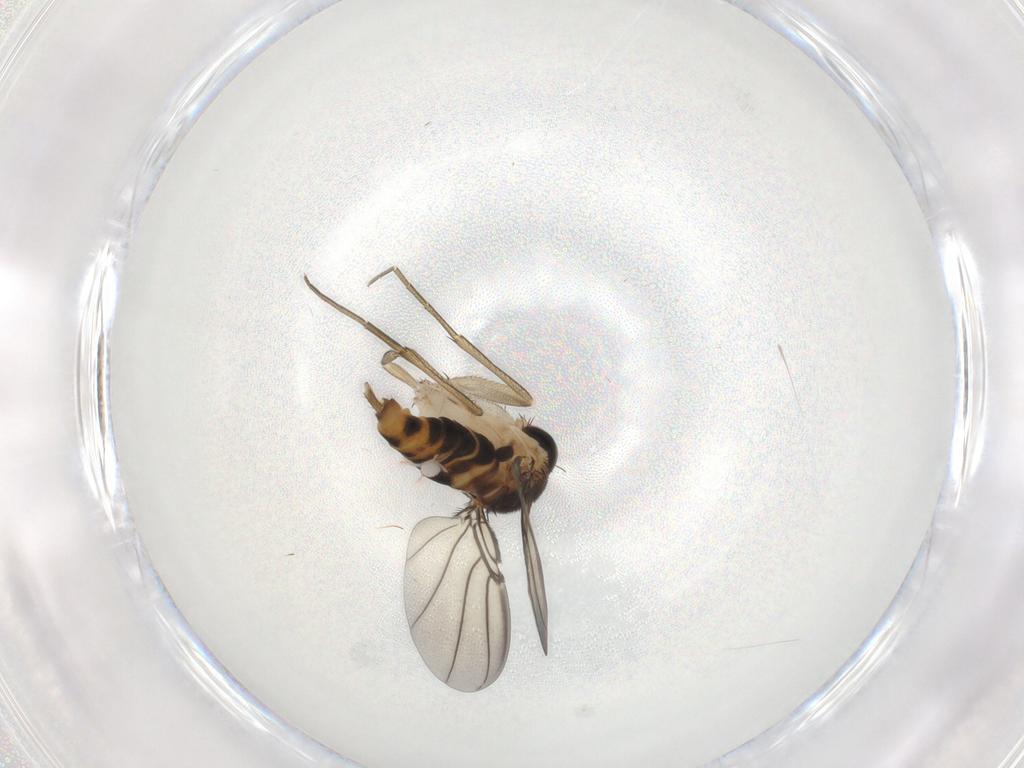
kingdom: Animalia
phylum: Arthropoda
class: Insecta
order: Diptera
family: Phoridae
